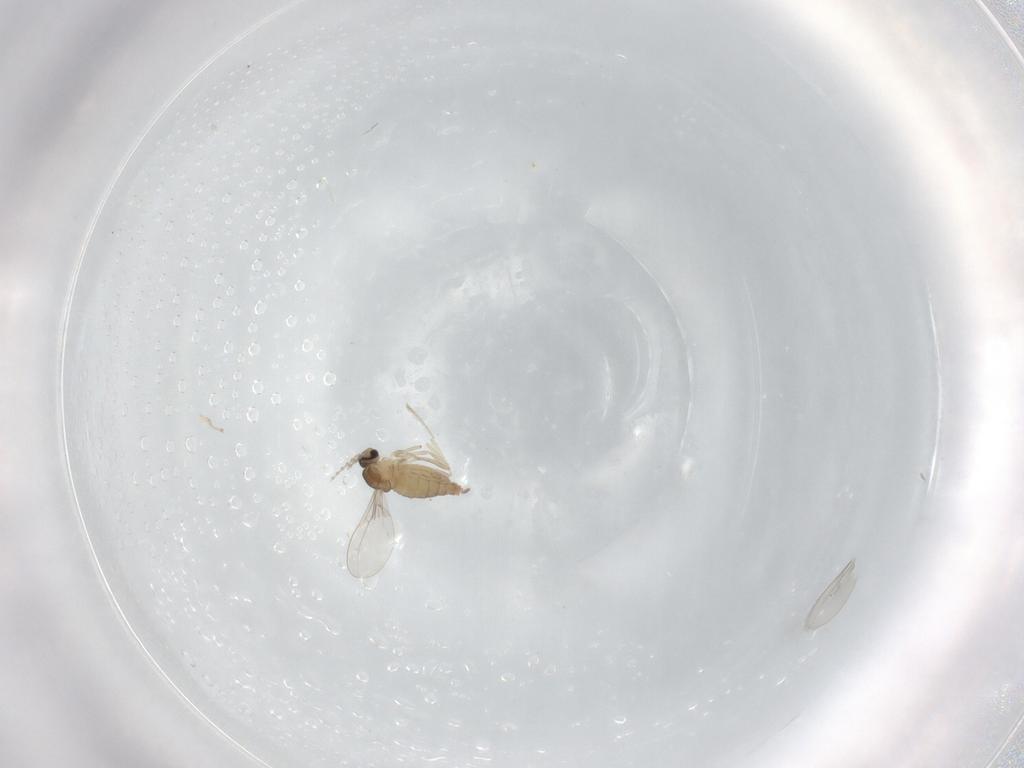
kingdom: Animalia
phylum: Arthropoda
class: Insecta
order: Diptera
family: Cecidomyiidae
